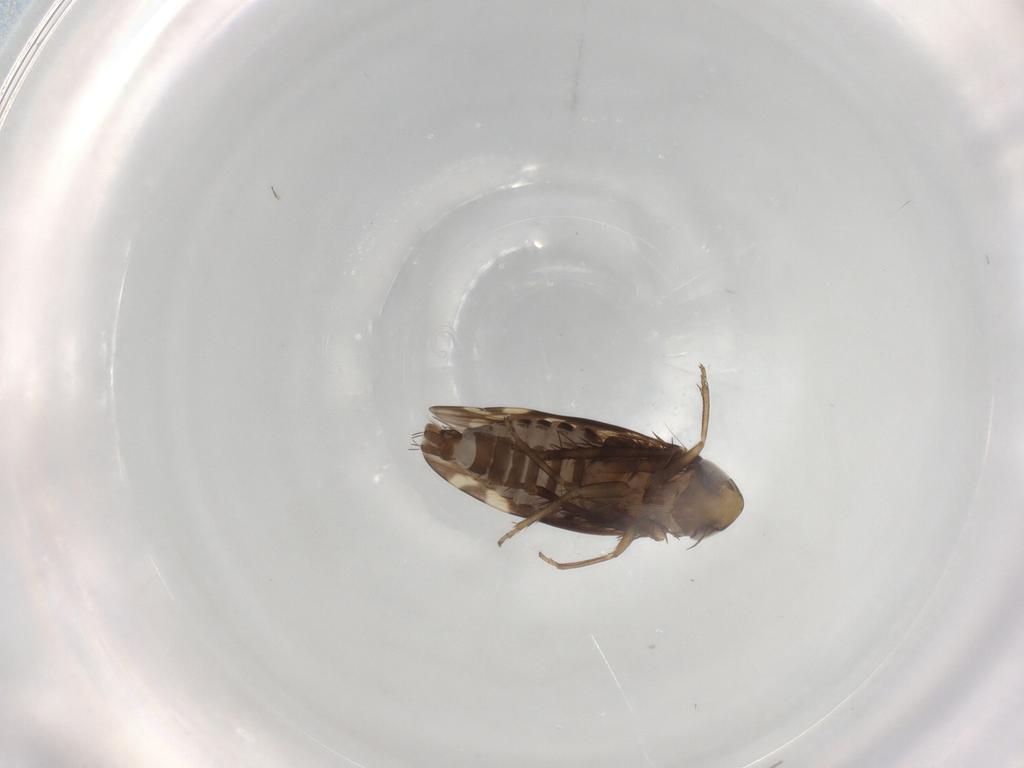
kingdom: Animalia
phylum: Arthropoda
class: Insecta
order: Hemiptera
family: Cicadellidae
